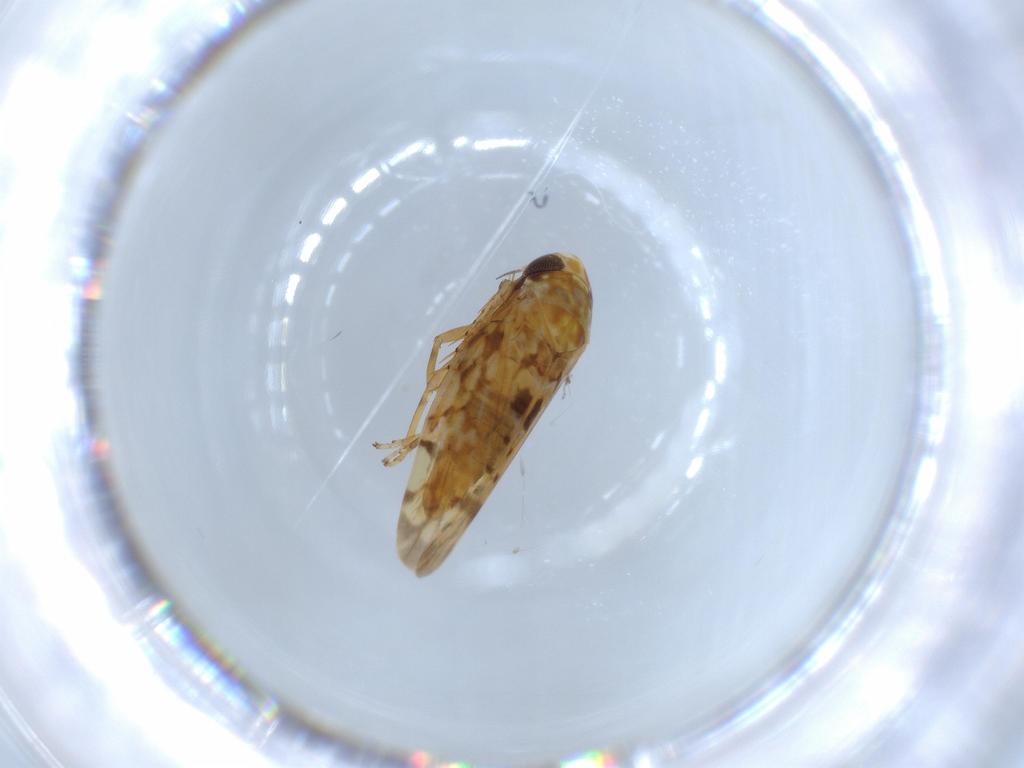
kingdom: Animalia
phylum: Arthropoda
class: Insecta
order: Hemiptera
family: Cicadellidae
